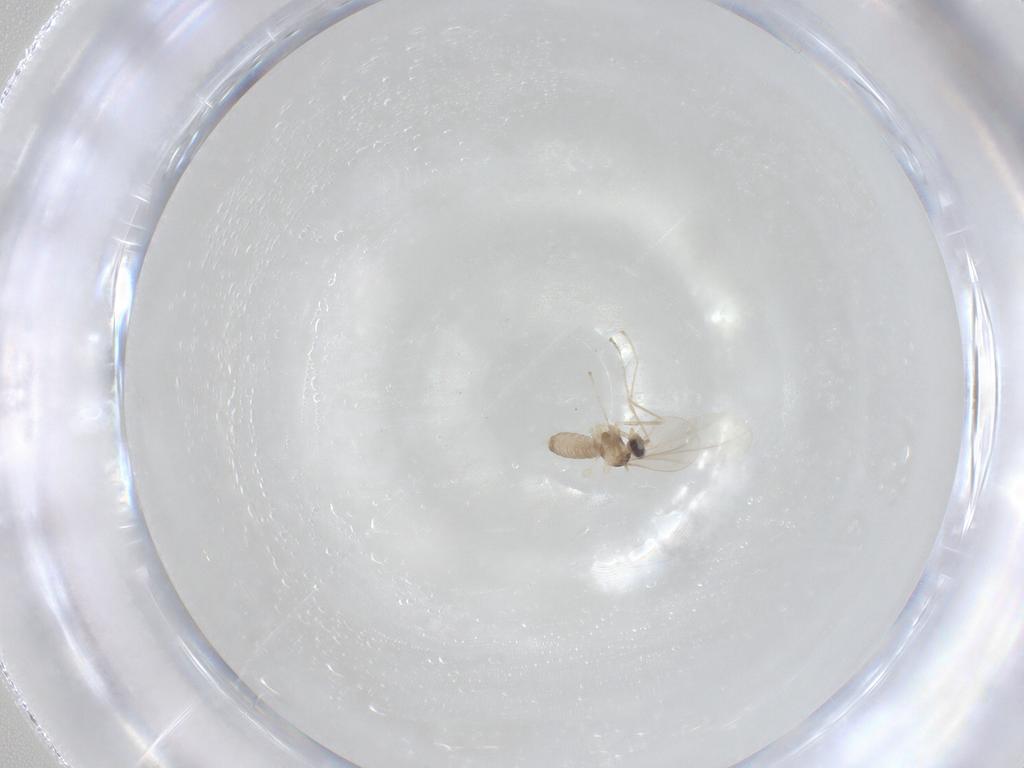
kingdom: Animalia
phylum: Arthropoda
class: Insecta
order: Diptera
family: Cecidomyiidae
